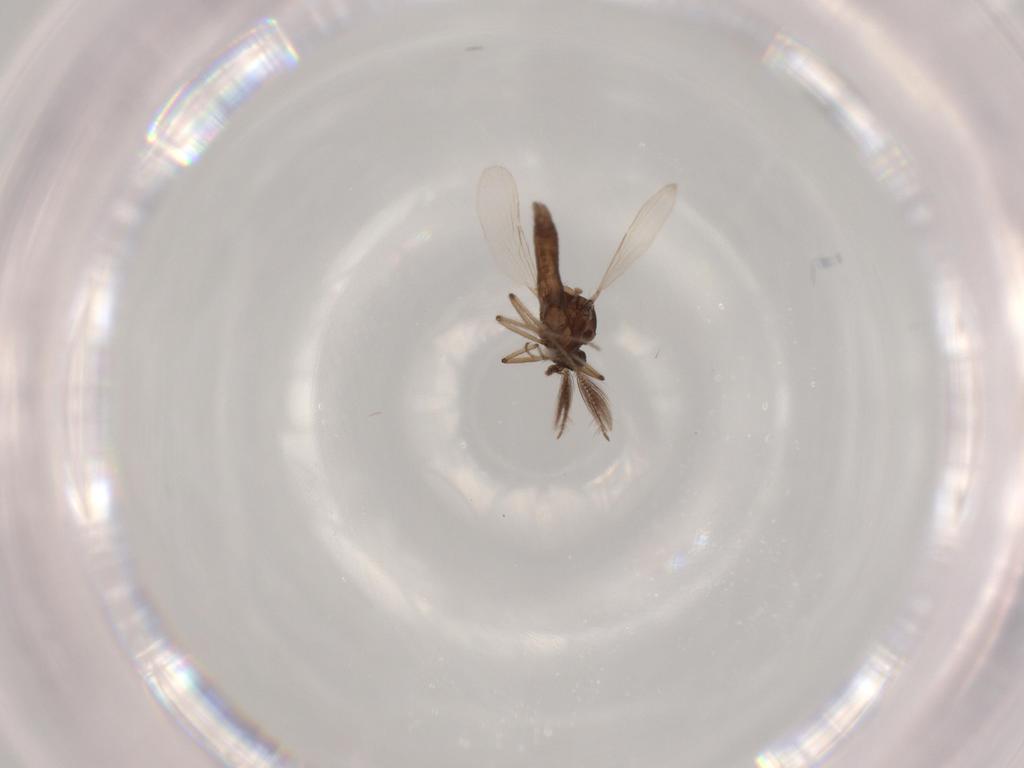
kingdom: Animalia
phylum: Arthropoda
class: Insecta
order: Diptera
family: Chironomidae
